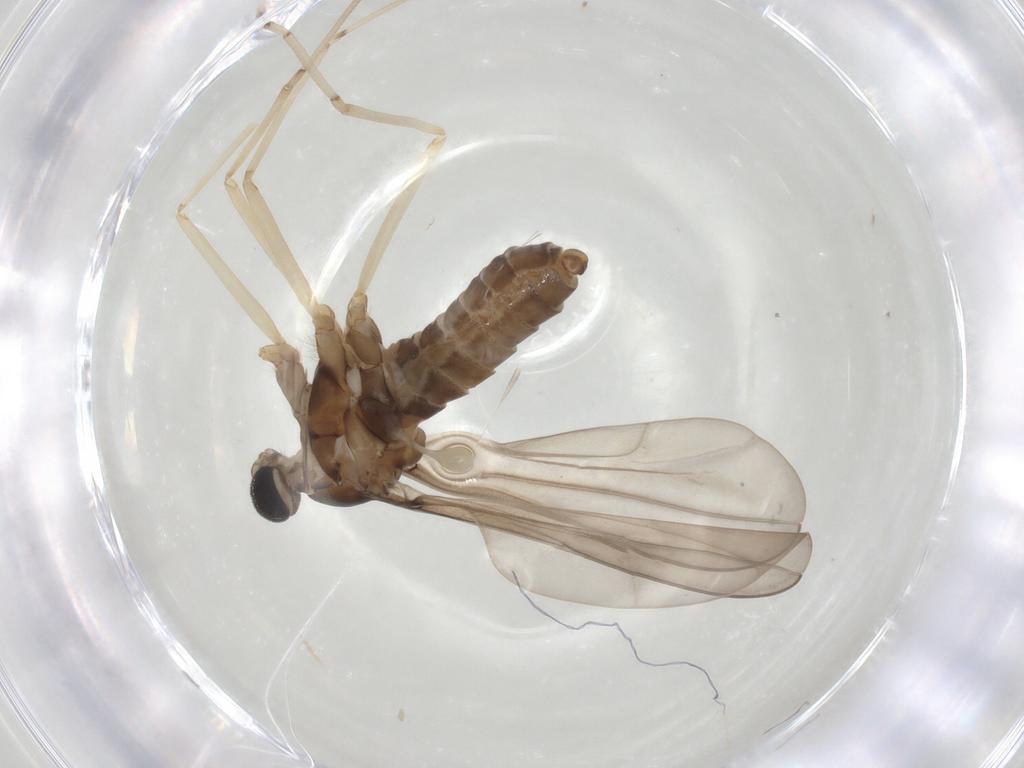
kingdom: Animalia
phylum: Arthropoda
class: Insecta
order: Diptera
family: Cecidomyiidae
